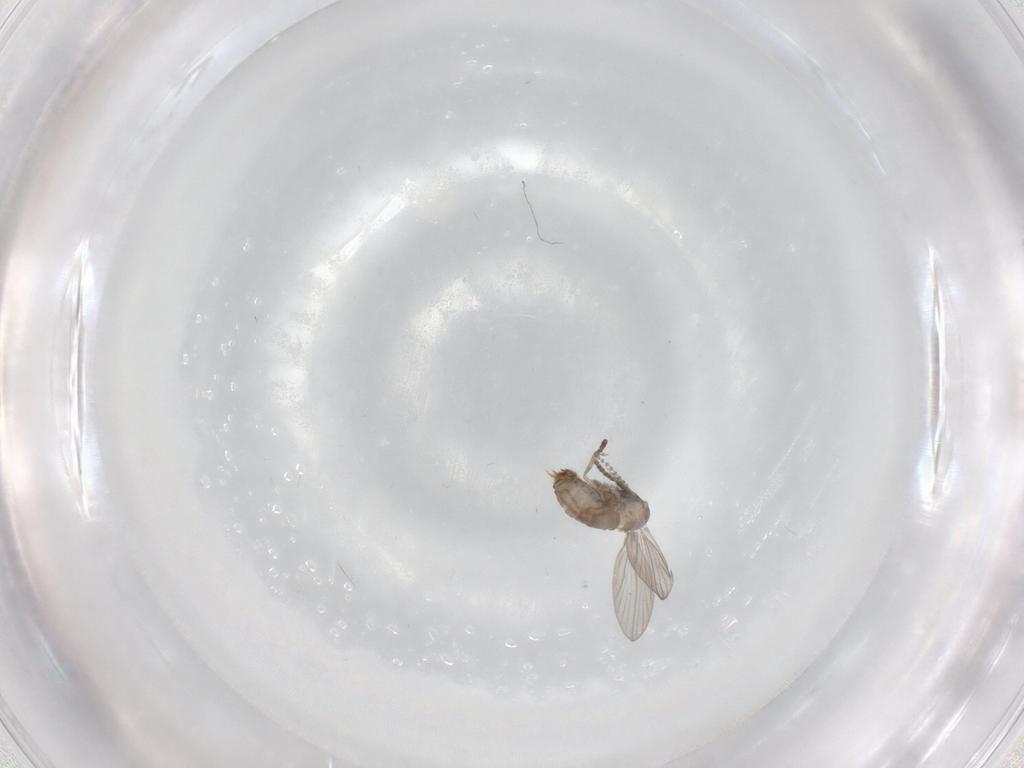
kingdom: Animalia
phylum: Arthropoda
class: Insecta
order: Diptera
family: Psychodidae
